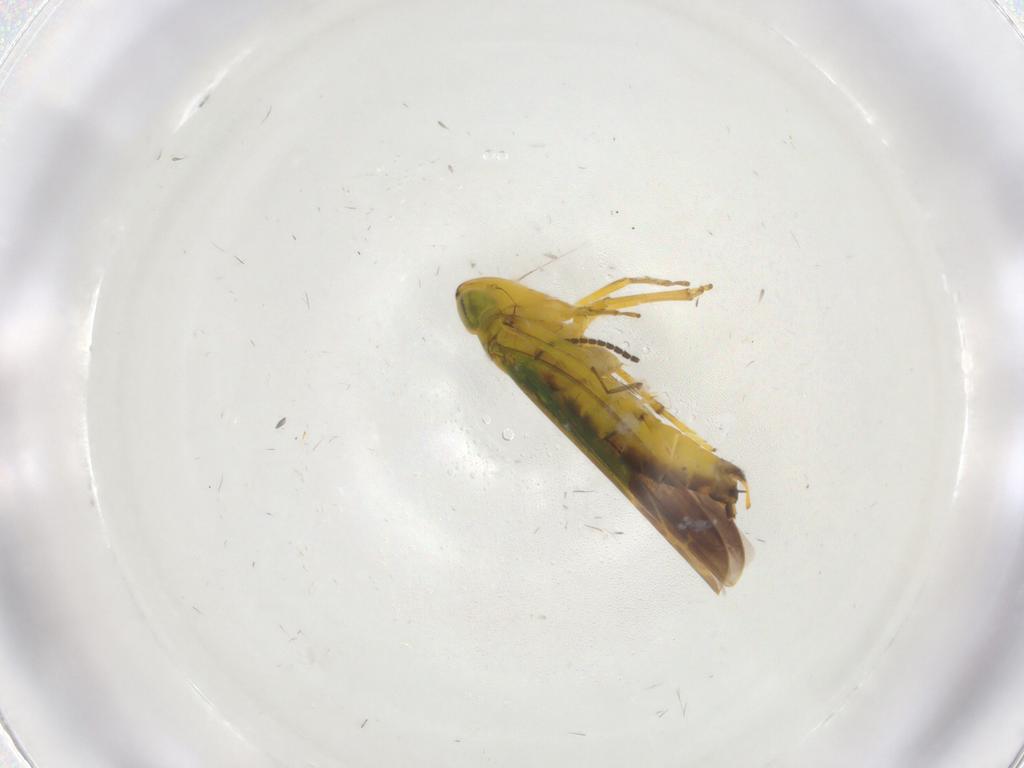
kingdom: Animalia
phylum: Arthropoda
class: Insecta
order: Hemiptera
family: Cicadellidae
